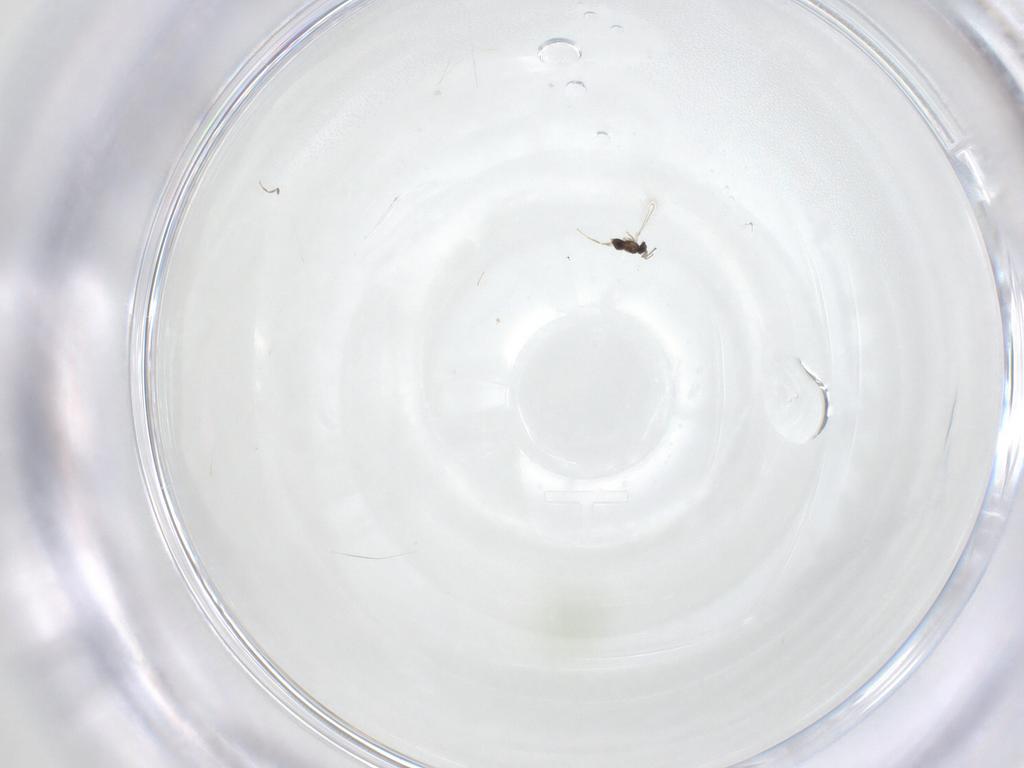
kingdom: Animalia
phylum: Arthropoda
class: Insecta
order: Hymenoptera
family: Mymaridae
